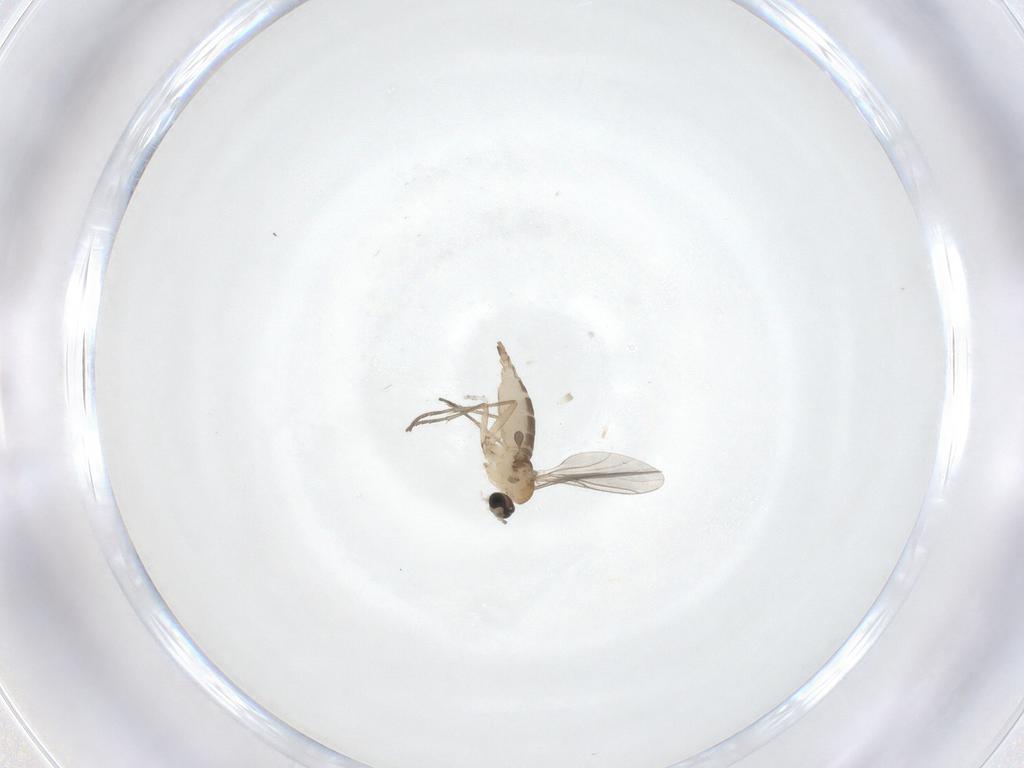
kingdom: Animalia
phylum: Arthropoda
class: Insecta
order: Diptera
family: Sciaridae
